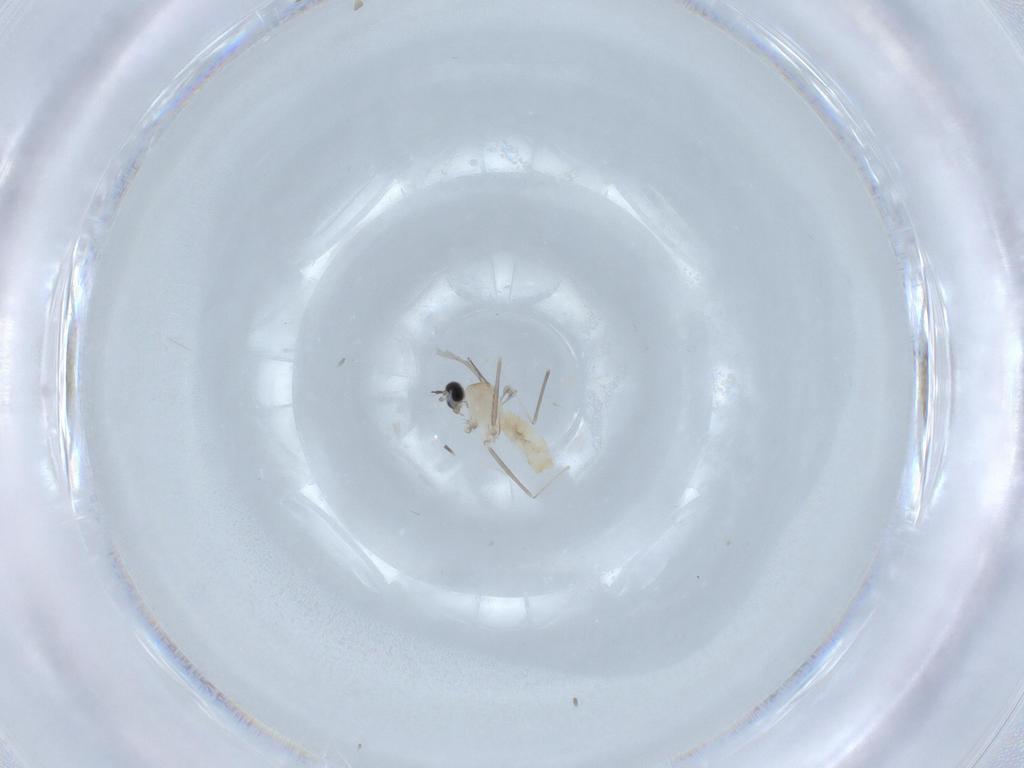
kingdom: Animalia
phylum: Arthropoda
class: Insecta
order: Diptera
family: Cecidomyiidae
